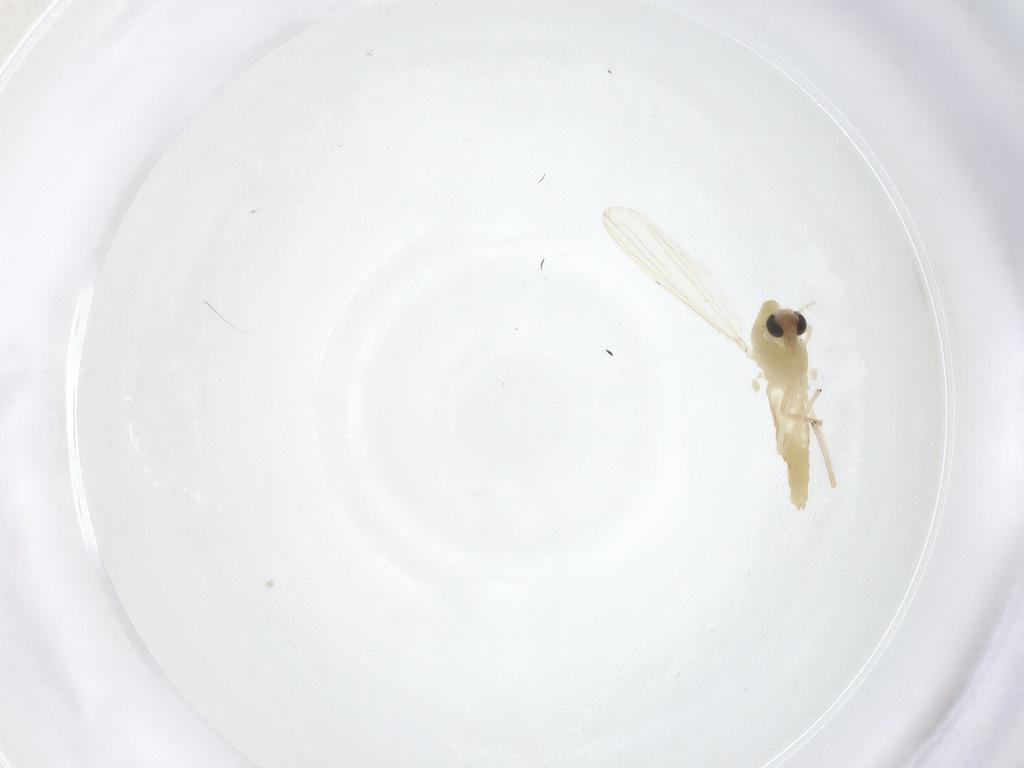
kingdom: Animalia
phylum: Arthropoda
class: Insecta
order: Diptera
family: Chironomidae
